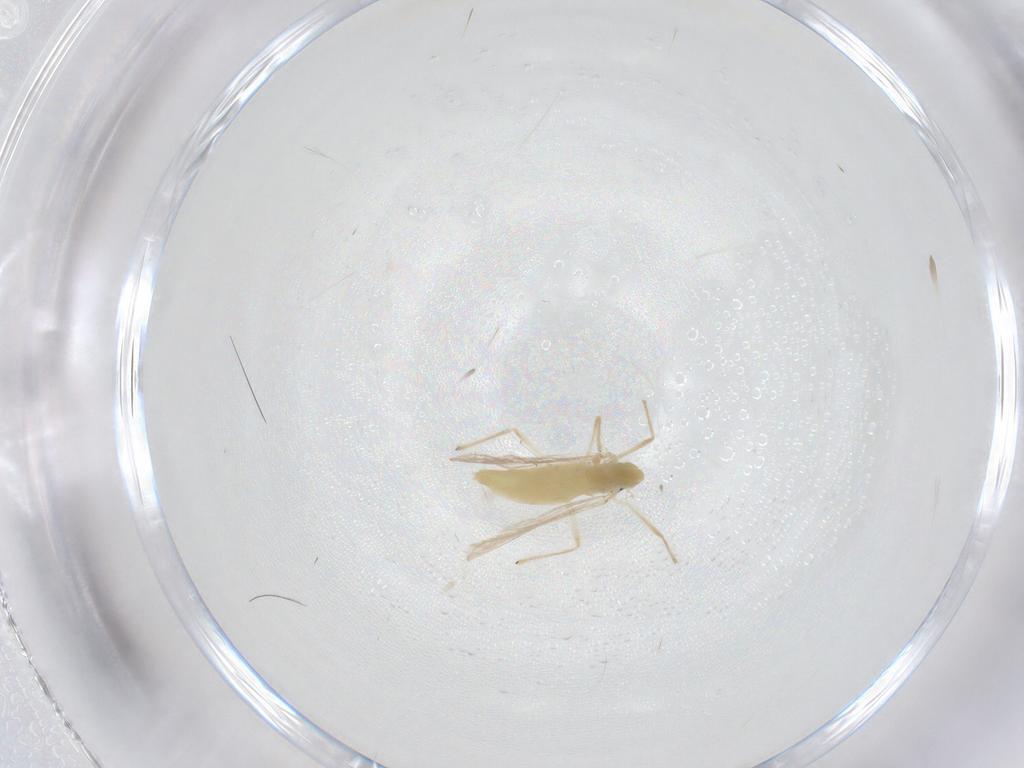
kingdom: Animalia
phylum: Arthropoda
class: Insecta
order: Diptera
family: Chironomidae
